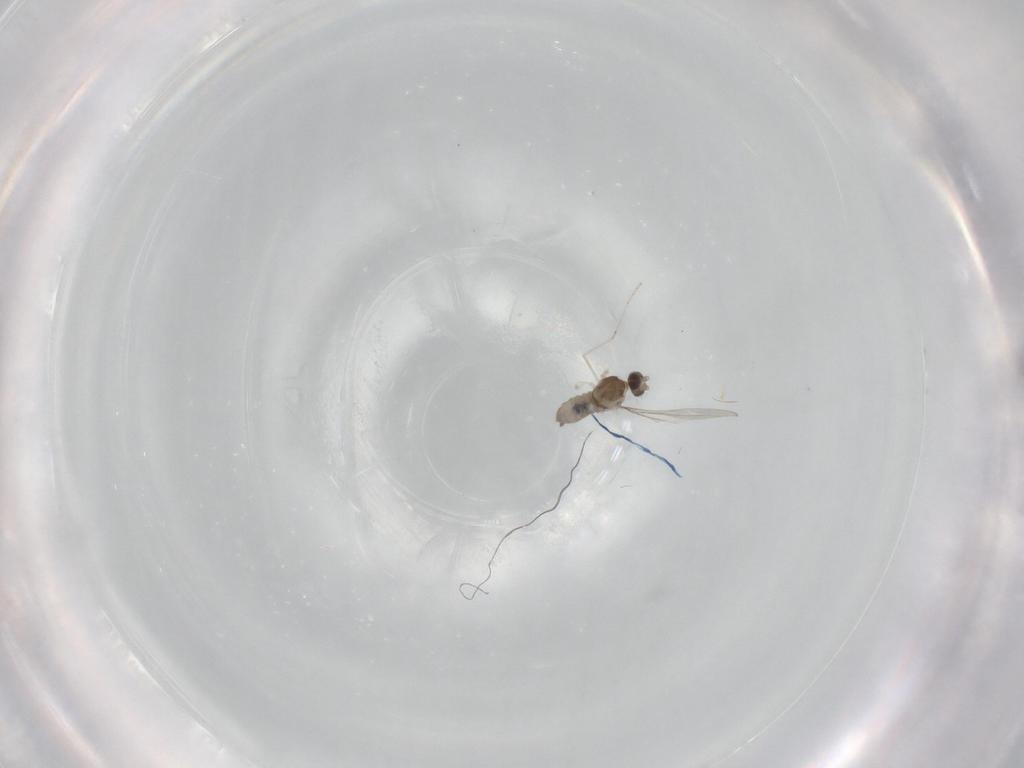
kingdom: Animalia
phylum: Arthropoda
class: Insecta
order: Diptera
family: Cecidomyiidae
